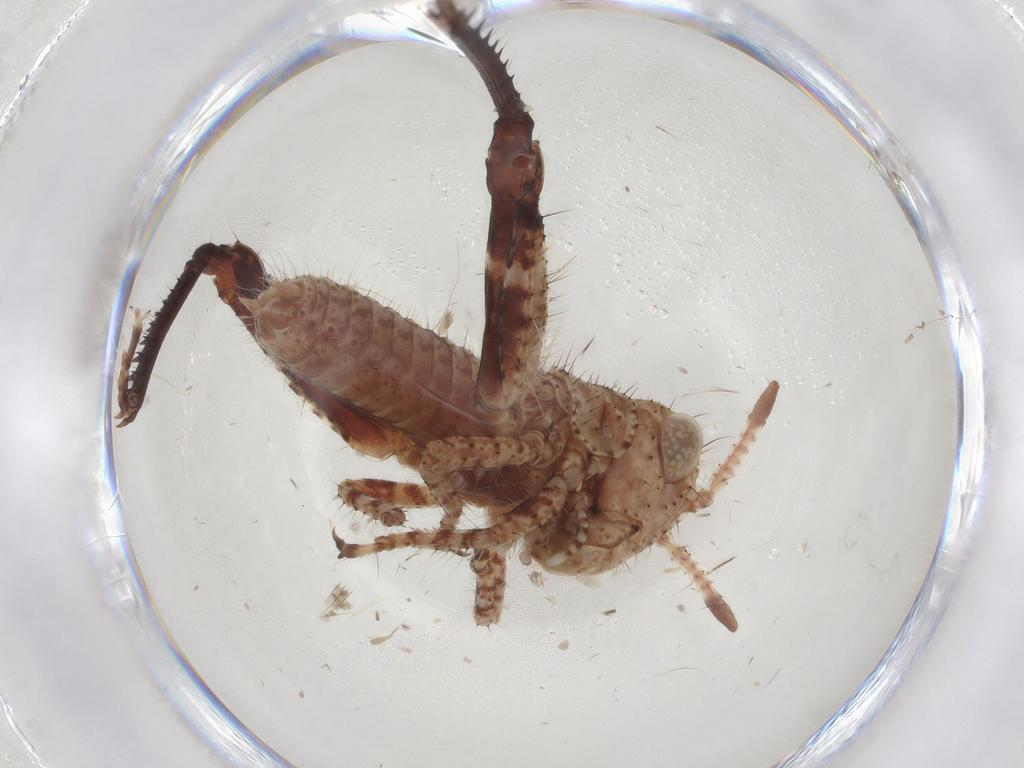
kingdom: Animalia
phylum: Arthropoda
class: Insecta
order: Orthoptera
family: Acrididae
